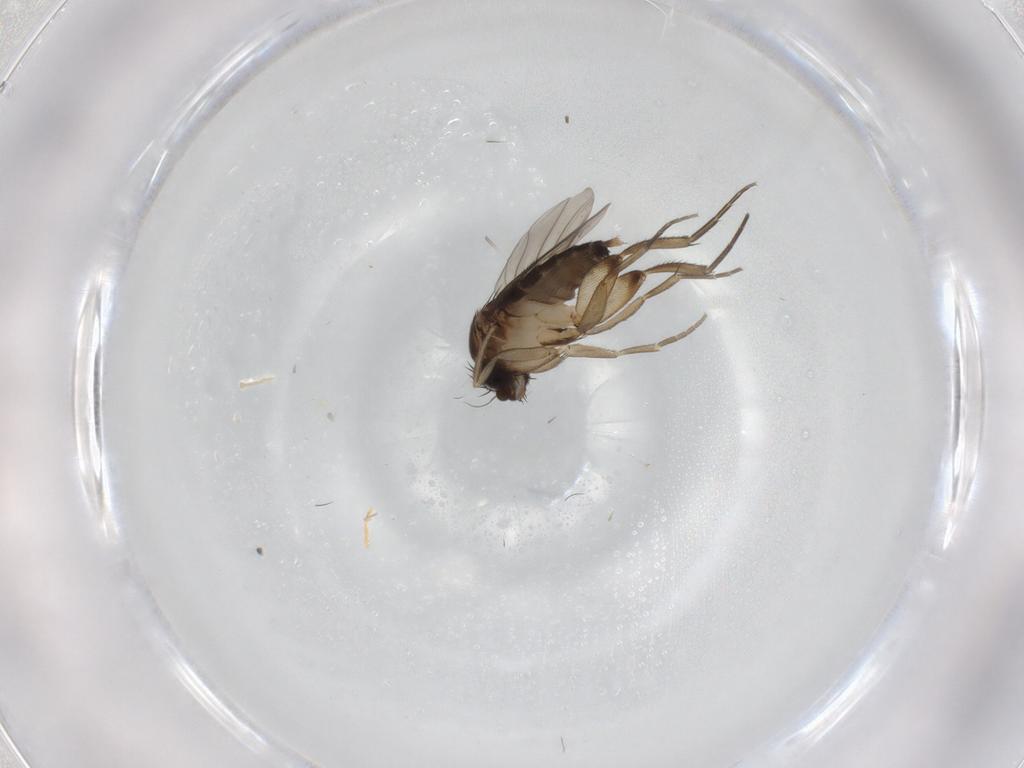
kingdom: Animalia
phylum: Arthropoda
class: Insecta
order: Diptera
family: Phoridae
